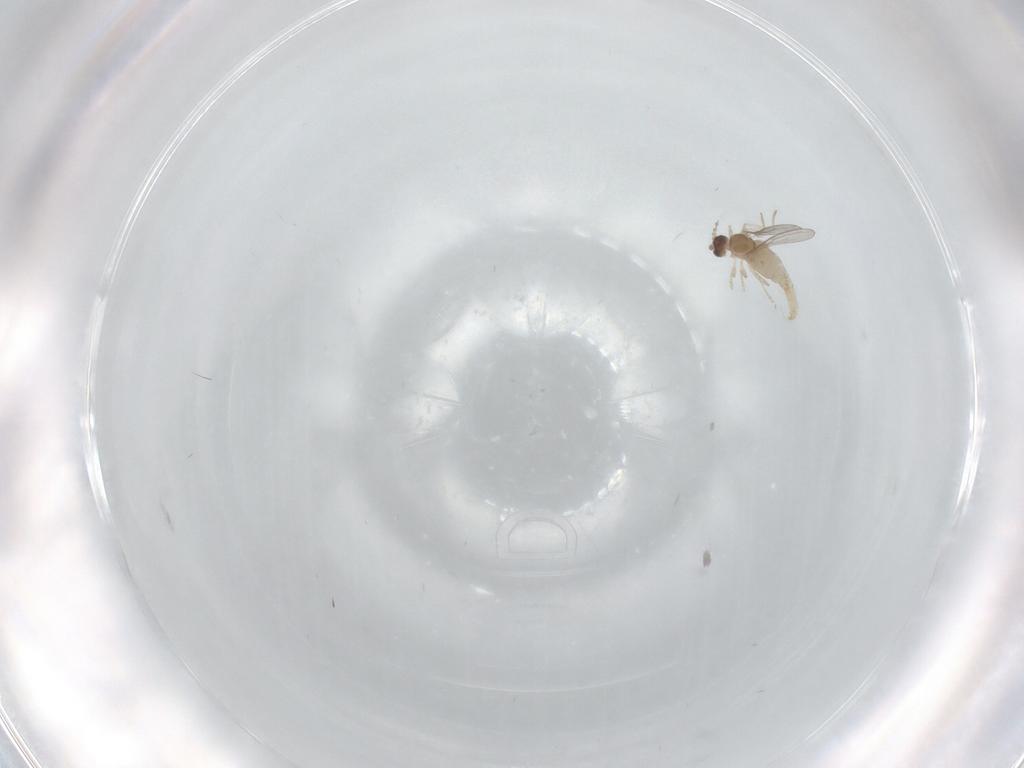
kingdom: Animalia
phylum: Arthropoda
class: Insecta
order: Diptera
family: Cecidomyiidae
